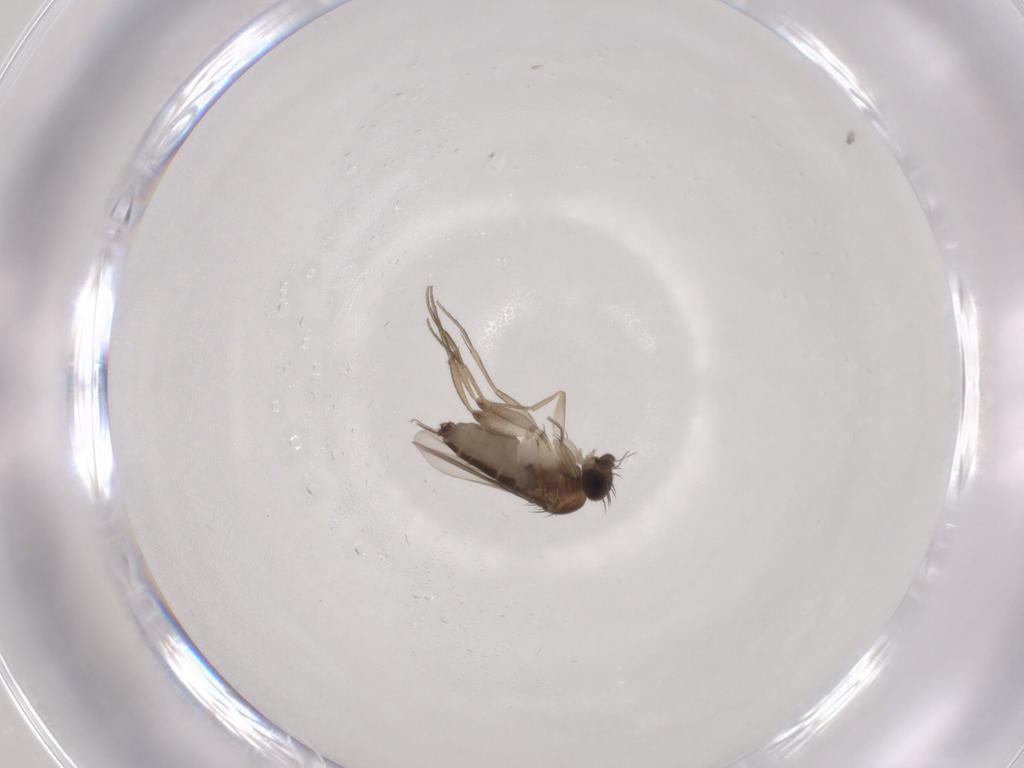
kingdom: Animalia
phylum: Arthropoda
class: Insecta
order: Diptera
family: Phoridae
